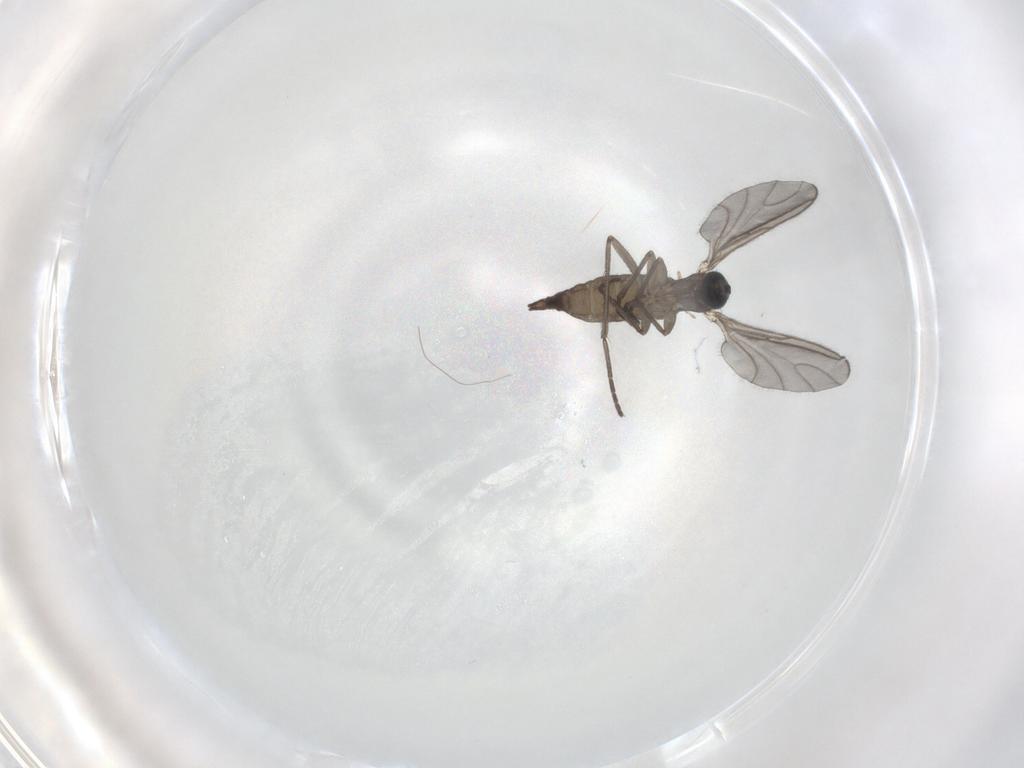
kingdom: Animalia
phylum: Arthropoda
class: Insecta
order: Diptera
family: Sciaridae
